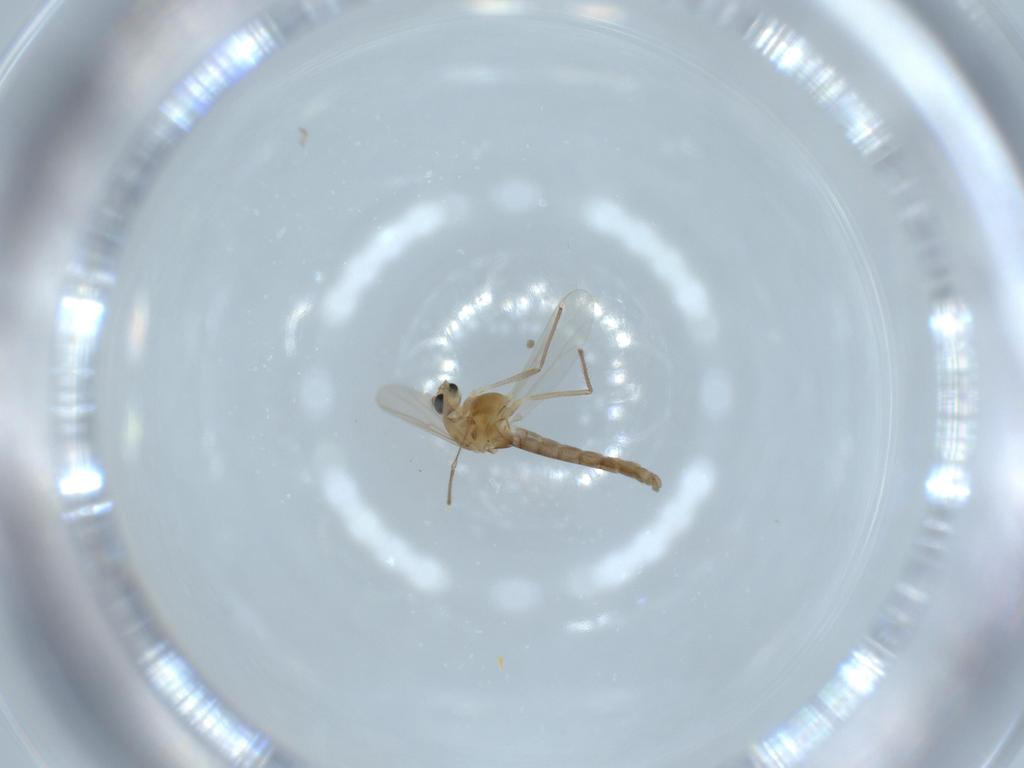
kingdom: Animalia
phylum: Arthropoda
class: Insecta
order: Diptera
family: Chironomidae
